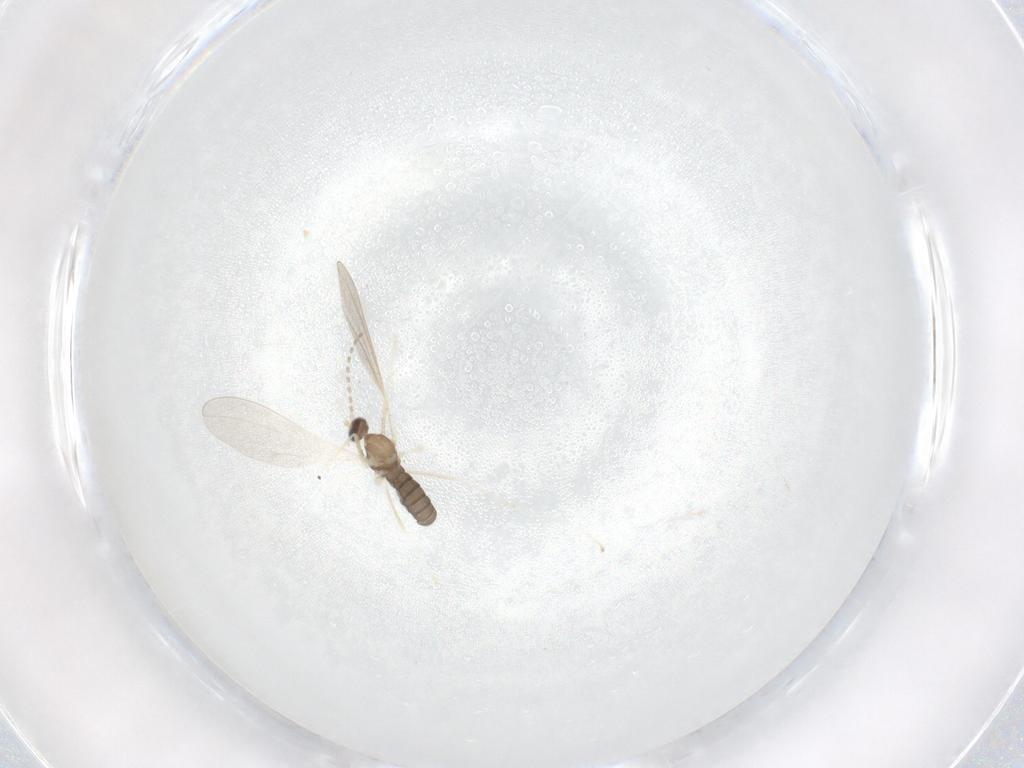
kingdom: Animalia
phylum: Arthropoda
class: Insecta
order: Diptera
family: Cecidomyiidae
